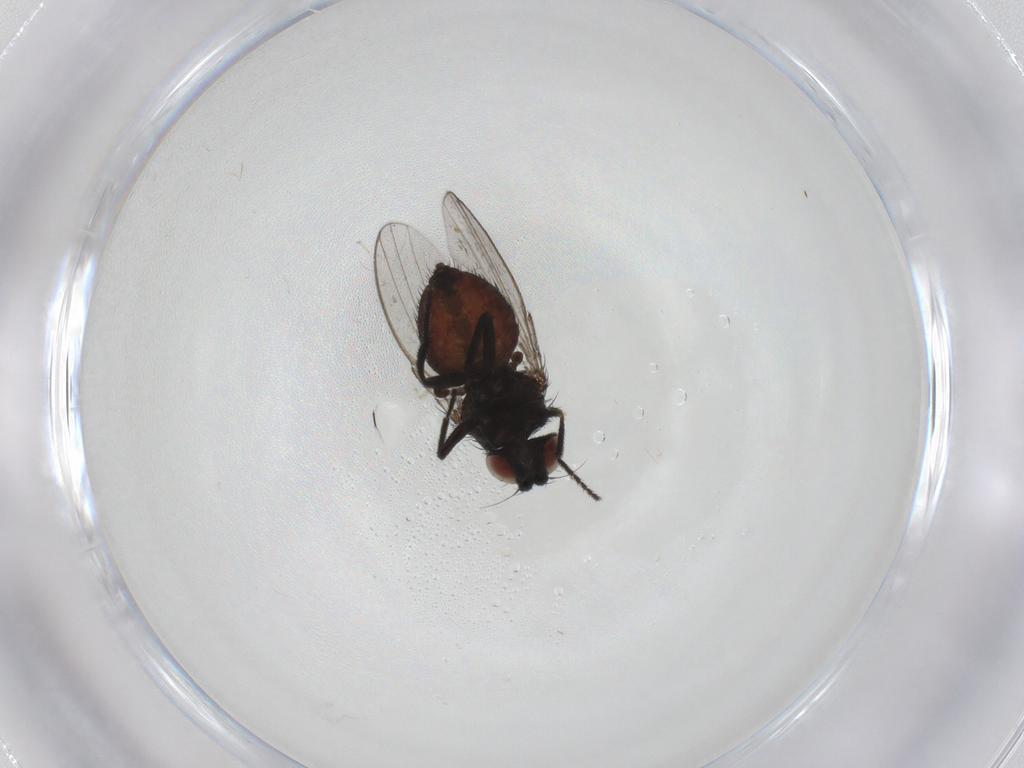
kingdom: Animalia
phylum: Arthropoda
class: Insecta
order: Diptera
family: Milichiidae
